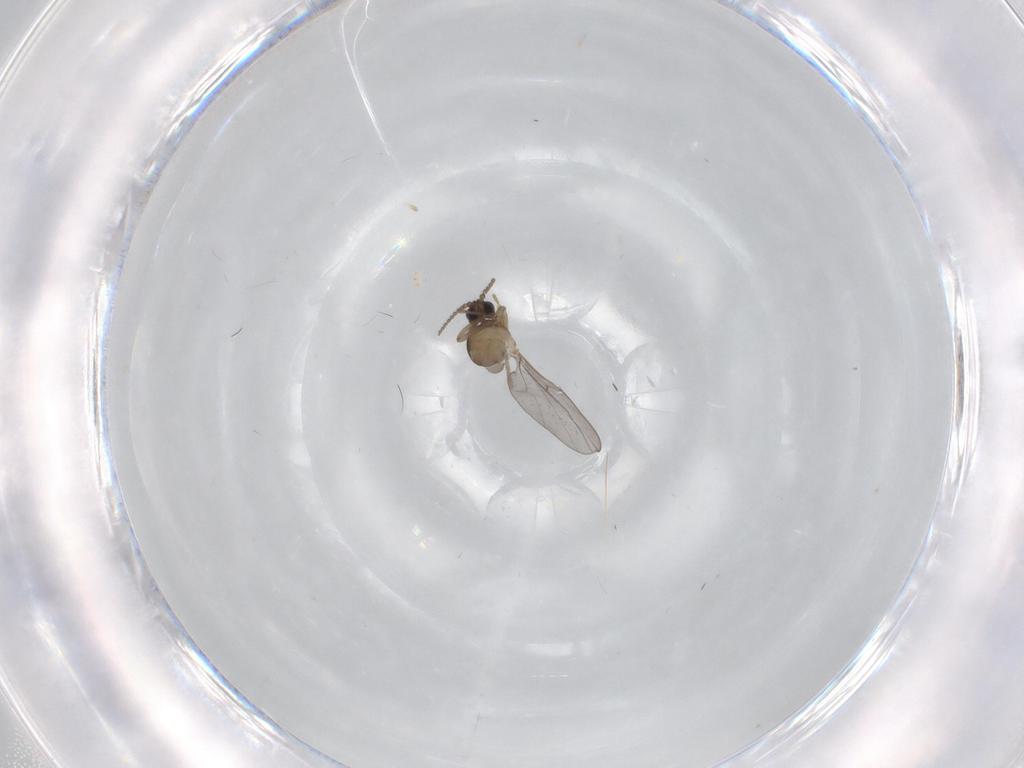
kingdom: Animalia
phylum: Arthropoda
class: Insecta
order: Diptera
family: Cecidomyiidae
